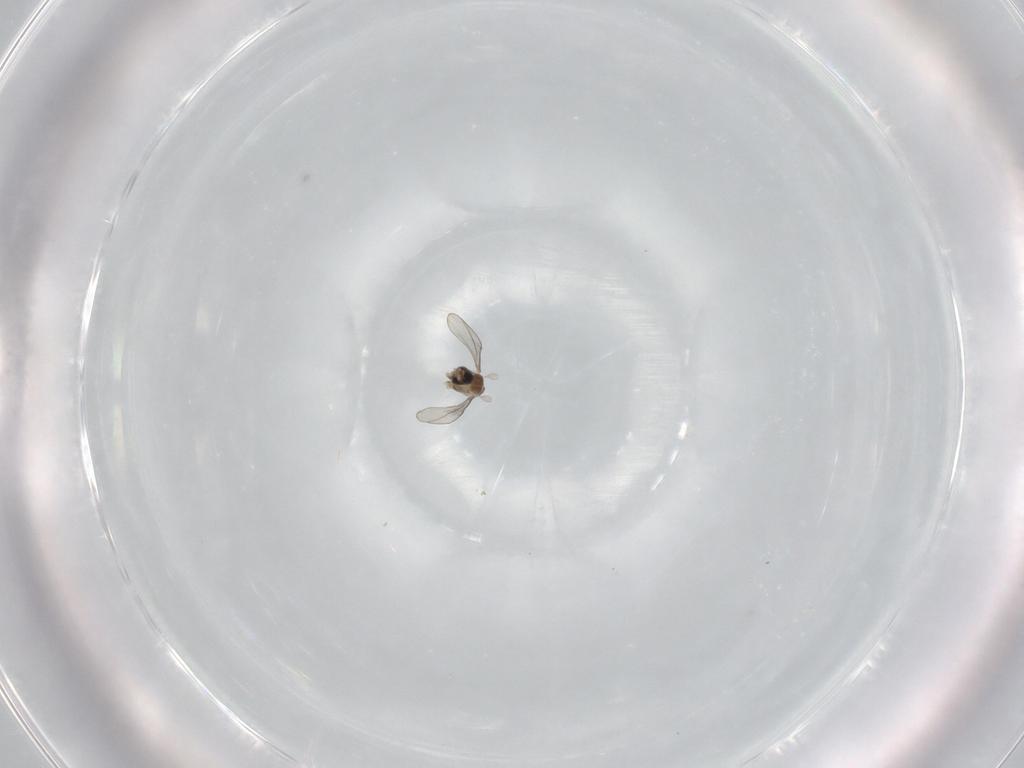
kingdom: Animalia
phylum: Arthropoda
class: Insecta
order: Diptera
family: Cecidomyiidae
